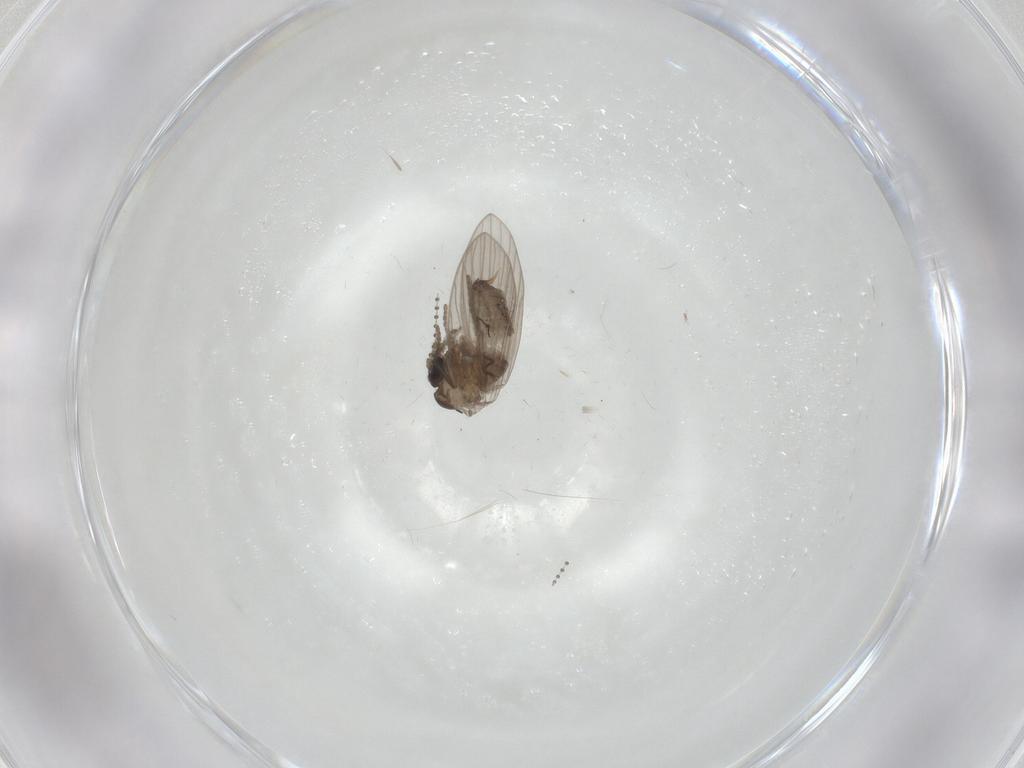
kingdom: Animalia
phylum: Arthropoda
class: Insecta
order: Diptera
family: Psychodidae
